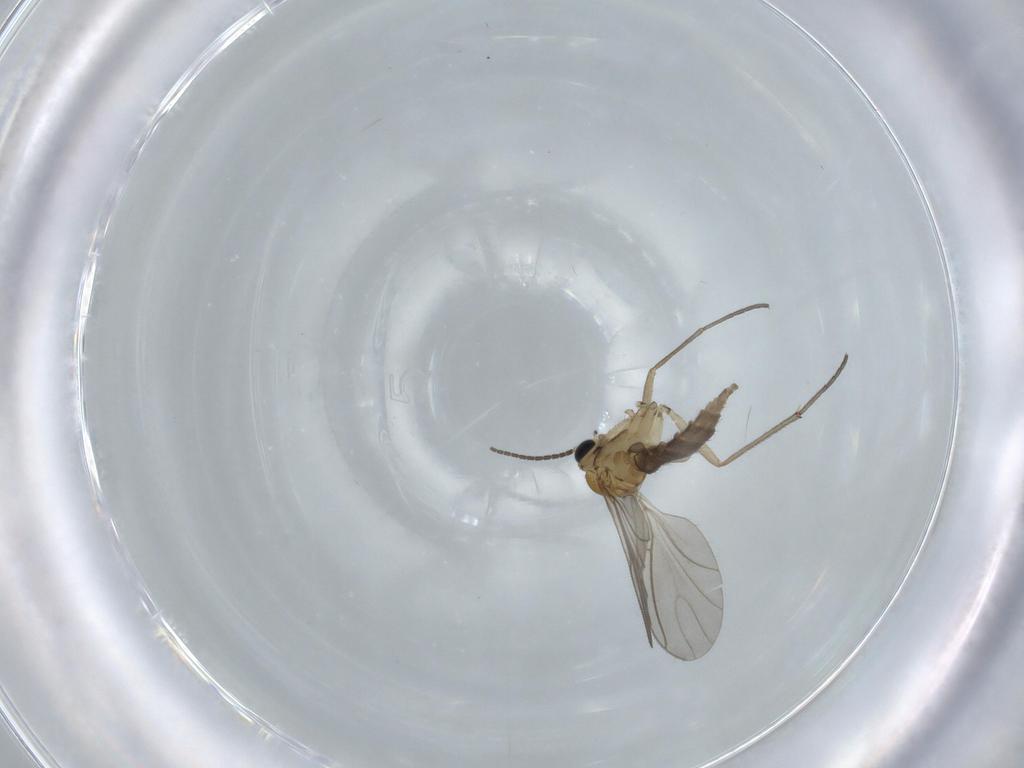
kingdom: Animalia
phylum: Arthropoda
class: Insecta
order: Diptera
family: Sciaridae
